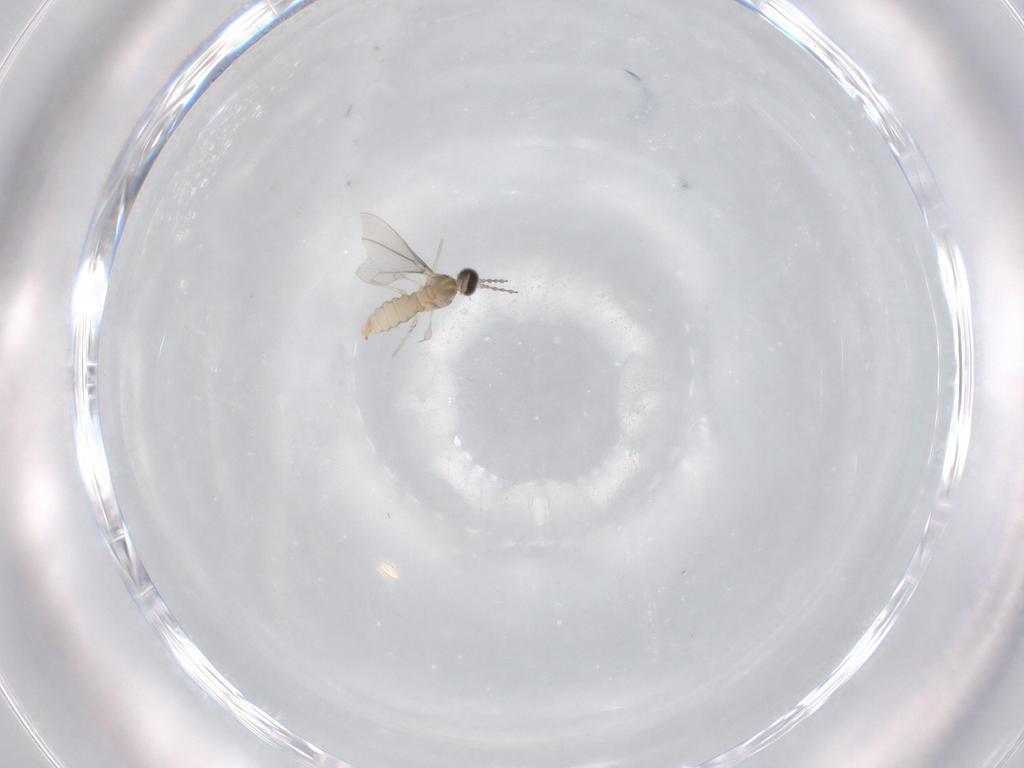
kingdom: Animalia
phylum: Arthropoda
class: Insecta
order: Diptera
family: Cecidomyiidae
